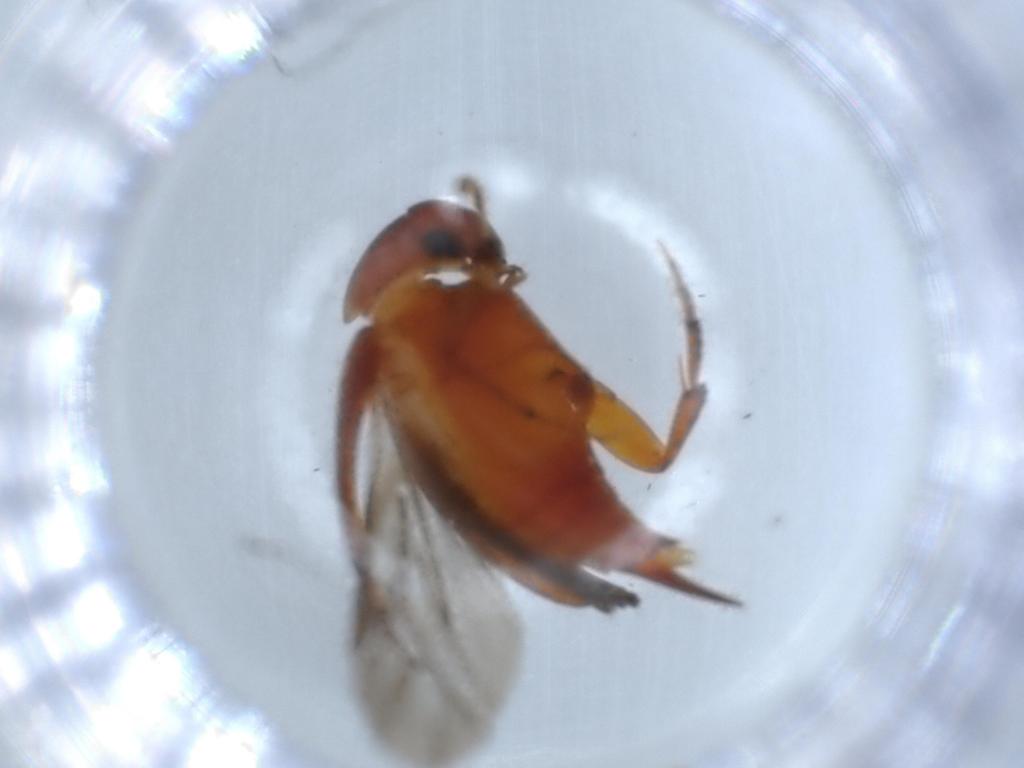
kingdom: Animalia
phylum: Arthropoda
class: Insecta
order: Coleoptera
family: Mordellidae
